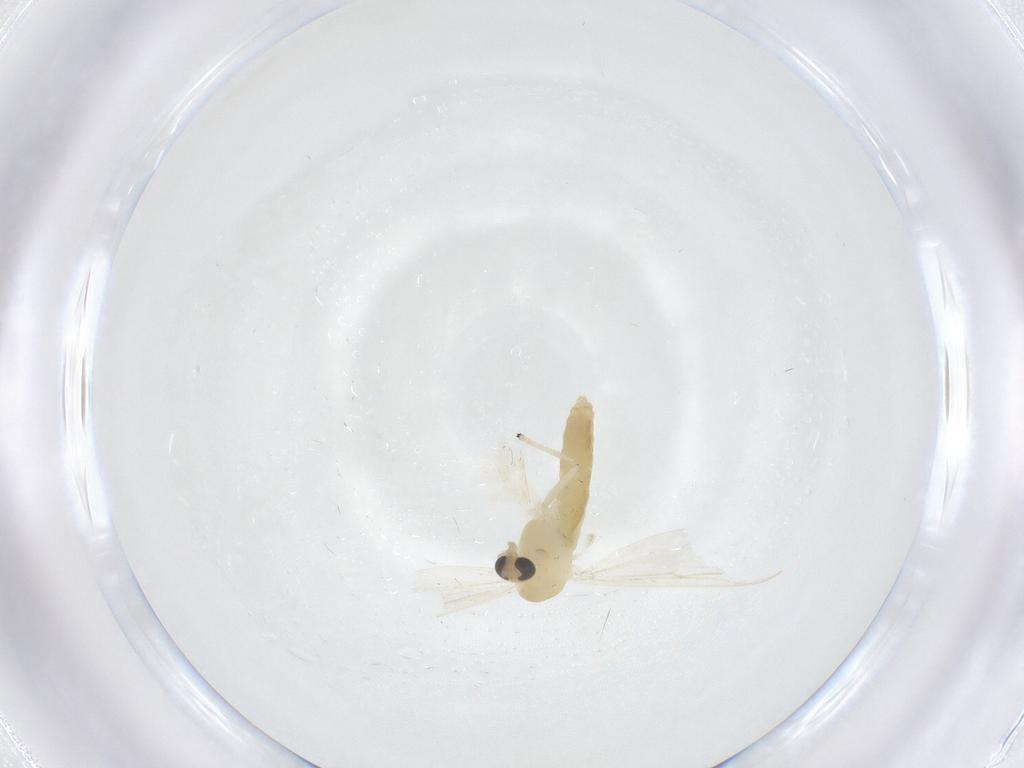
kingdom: Animalia
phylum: Arthropoda
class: Insecta
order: Diptera
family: Chironomidae
